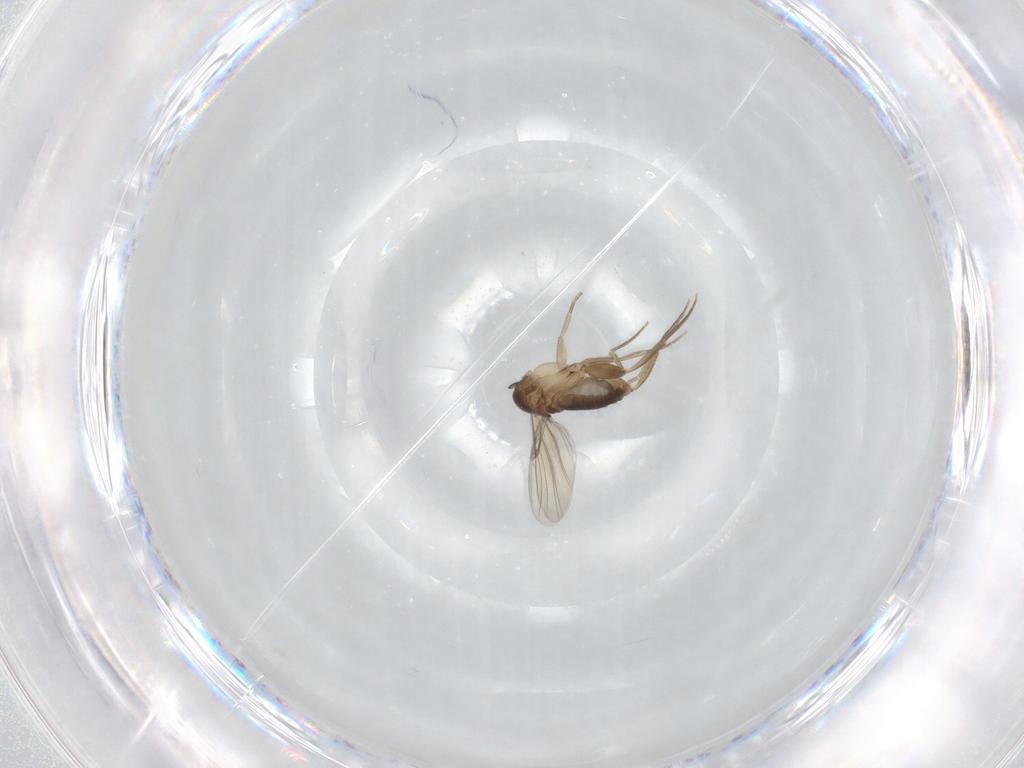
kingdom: Animalia
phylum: Arthropoda
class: Insecta
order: Diptera
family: Phoridae
